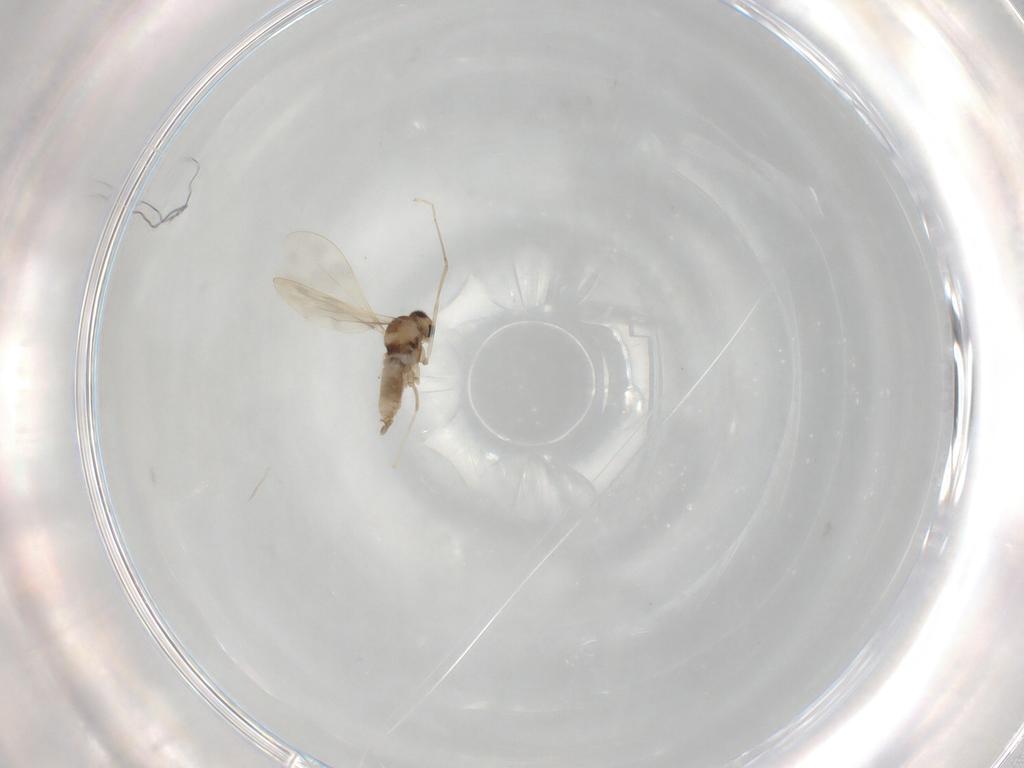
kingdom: Animalia
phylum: Arthropoda
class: Insecta
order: Diptera
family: Cecidomyiidae
